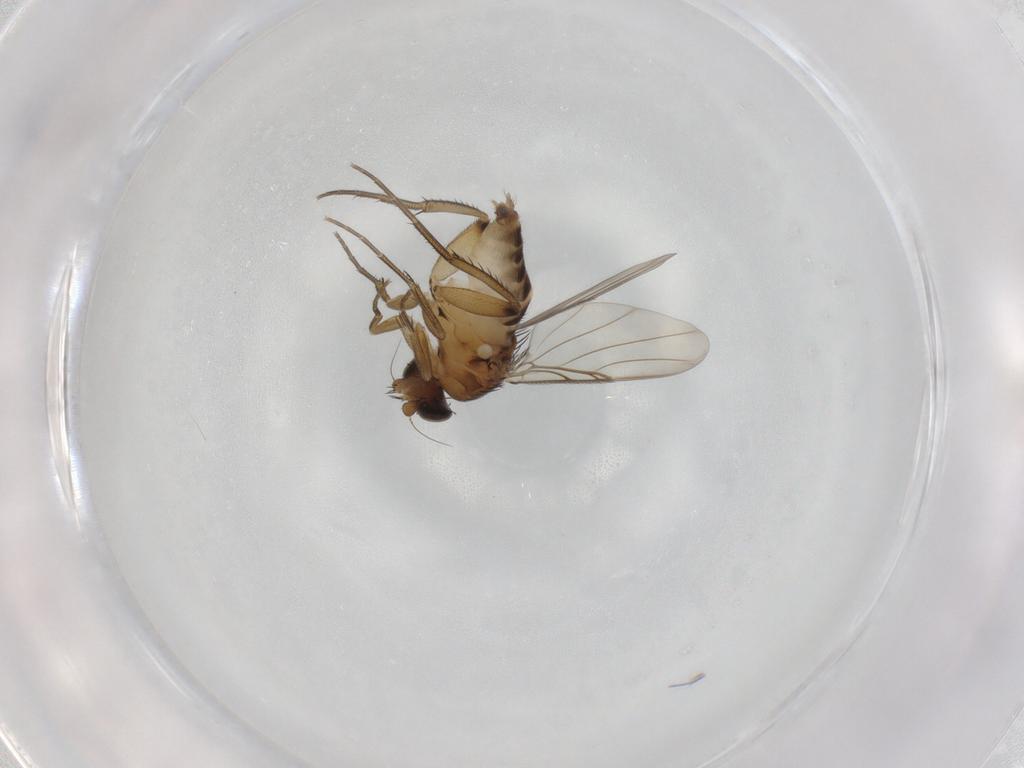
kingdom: Animalia
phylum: Arthropoda
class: Insecta
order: Diptera
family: Phoridae
